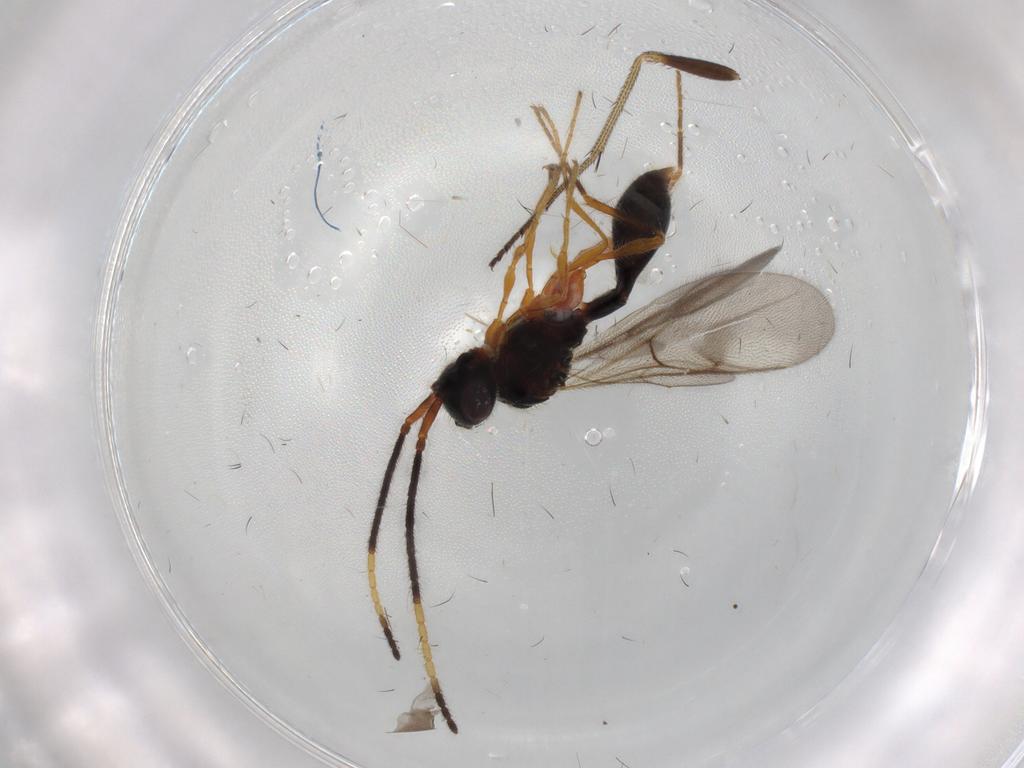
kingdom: Animalia
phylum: Arthropoda
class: Insecta
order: Hymenoptera
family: Diapriidae
